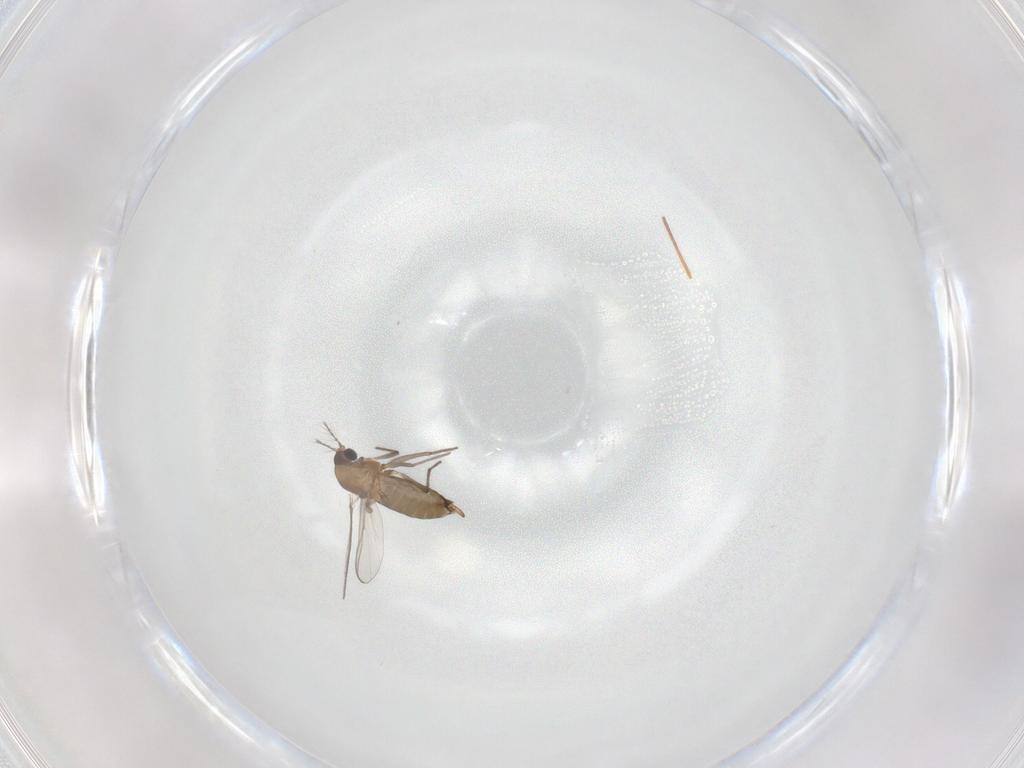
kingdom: Animalia
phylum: Arthropoda
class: Insecta
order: Diptera
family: Chironomidae
